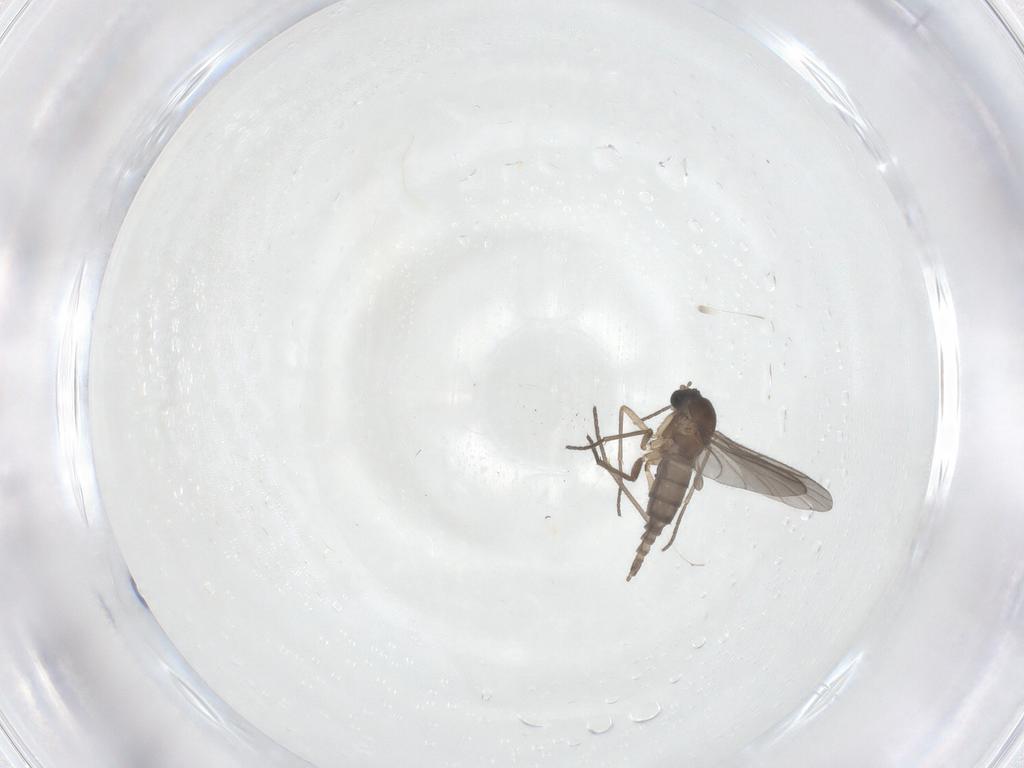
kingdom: Animalia
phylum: Arthropoda
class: Insecta
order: Diptera
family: Sciaridae
